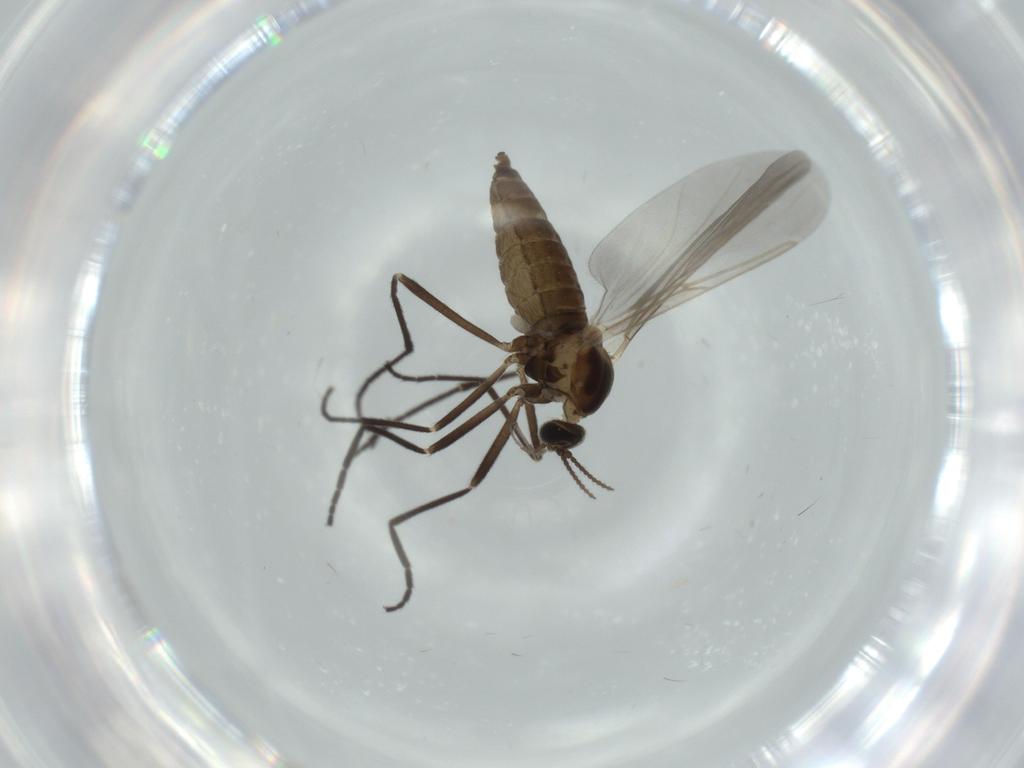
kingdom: Animalia
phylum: Arthropoda
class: Insecta
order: Diptera
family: Cecidomyiidae
